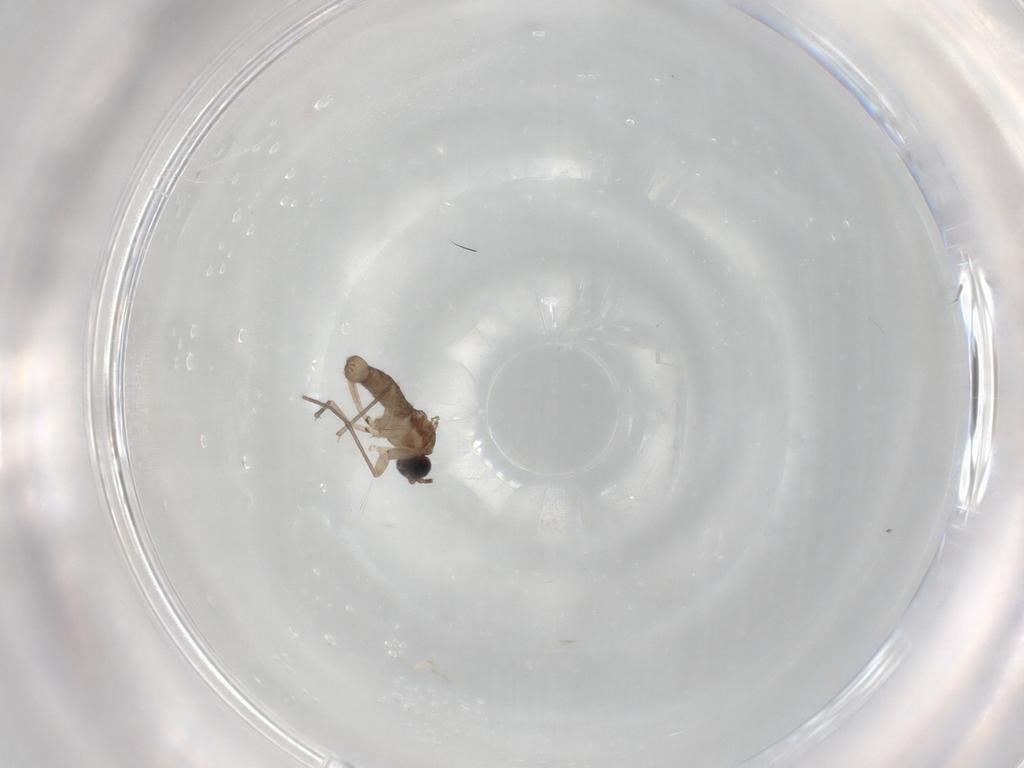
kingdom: Animalia
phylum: Arthropoda
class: Insecta
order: Diptera
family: Sciaridae
